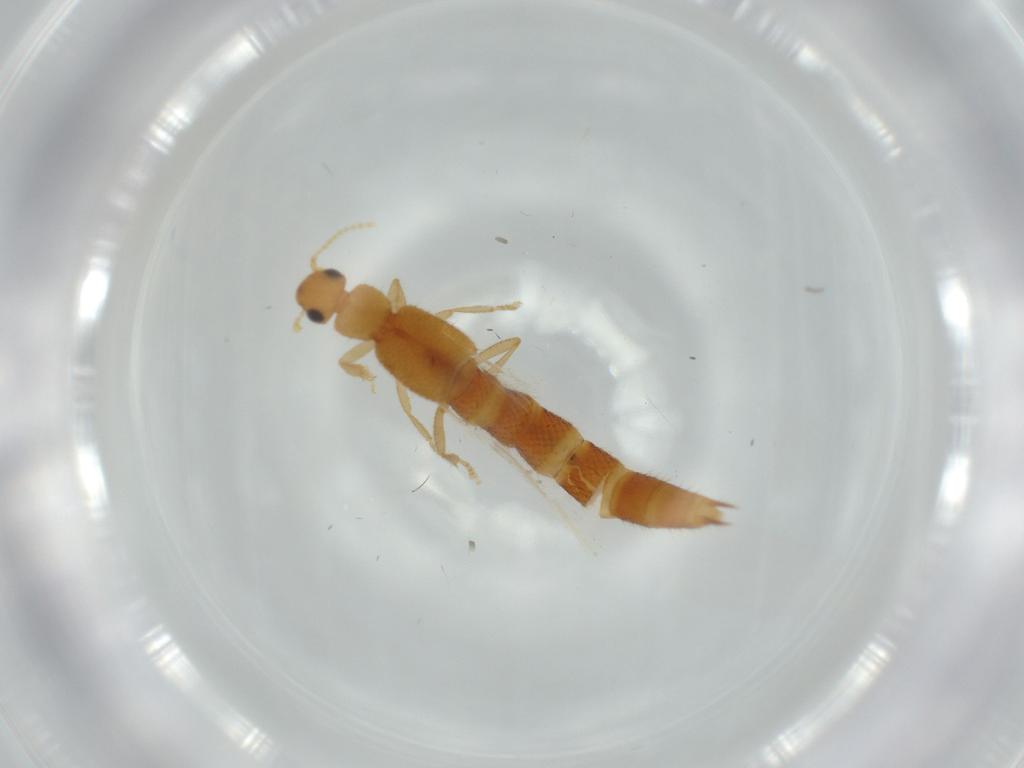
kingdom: Animalia
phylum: Arthropoda
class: Insecta
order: Coleoptera
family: Staphylinidae
